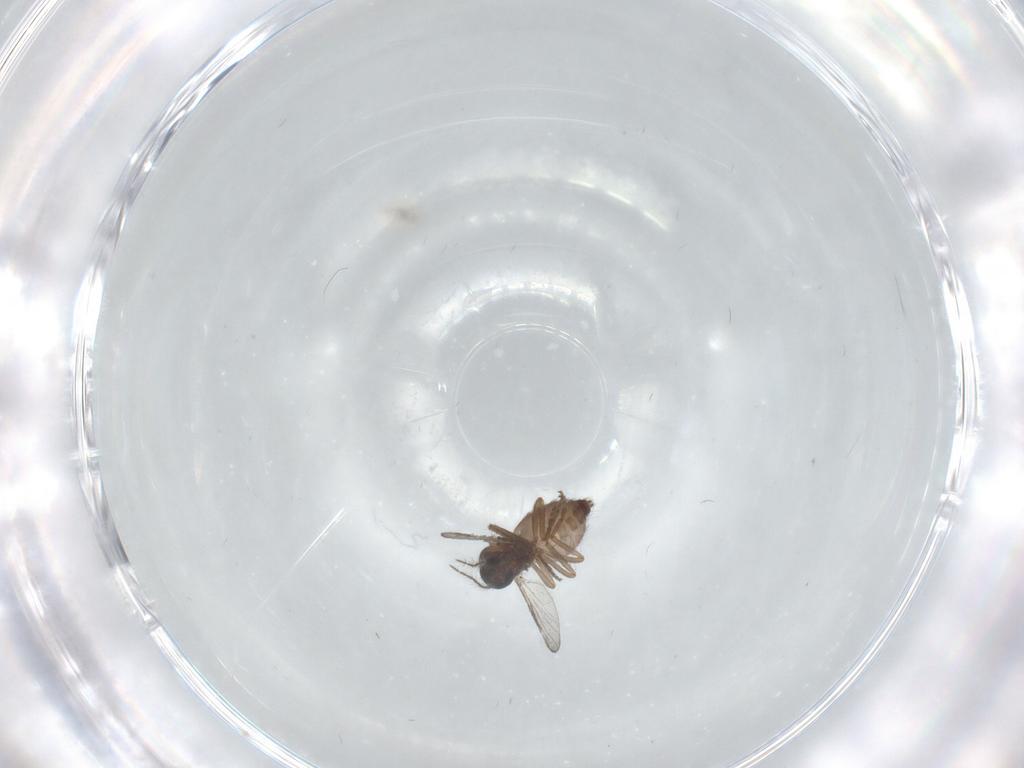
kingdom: Animalia
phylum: Arthropoda
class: Insecta
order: Diptera
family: Ceratopogonidae
